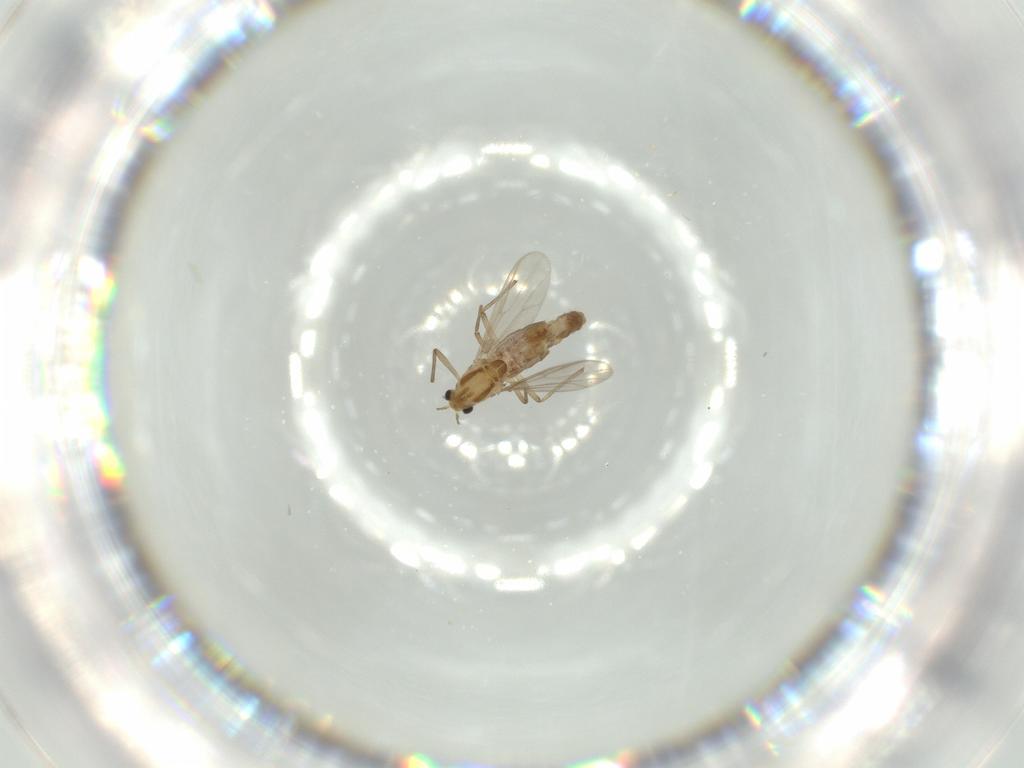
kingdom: Animalia
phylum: Arthropoda
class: Insecta
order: Diptera
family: Chironomidae
